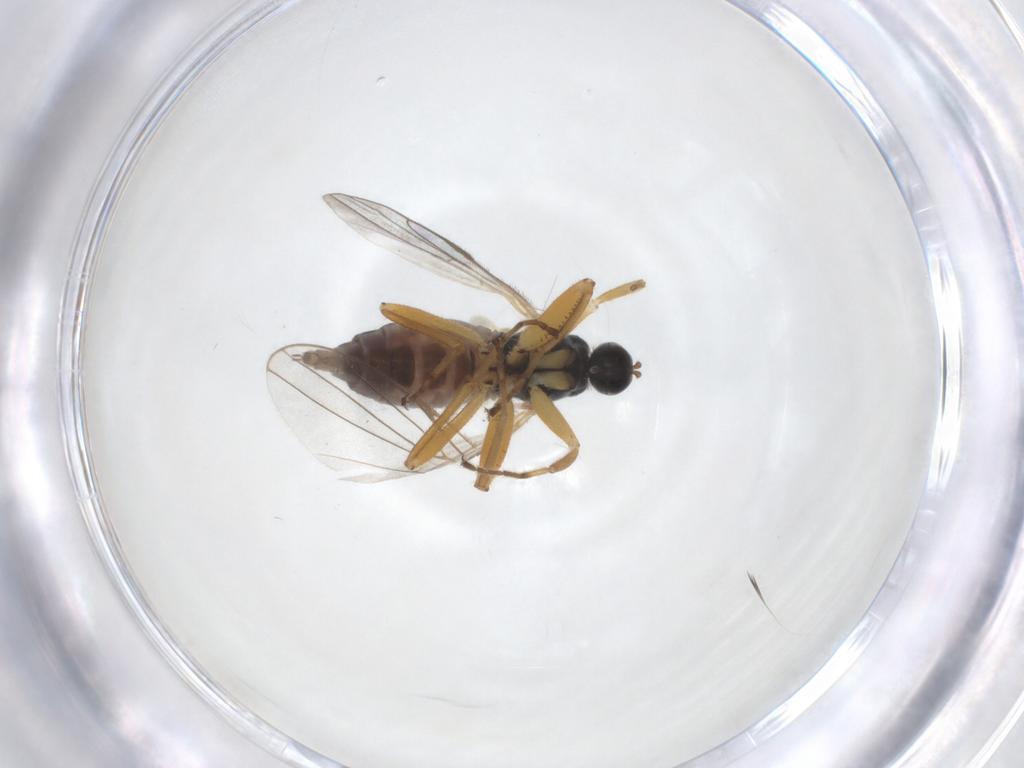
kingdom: Animalia
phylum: Arthropoda
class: Insecta
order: Diptera
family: Hybotidae
